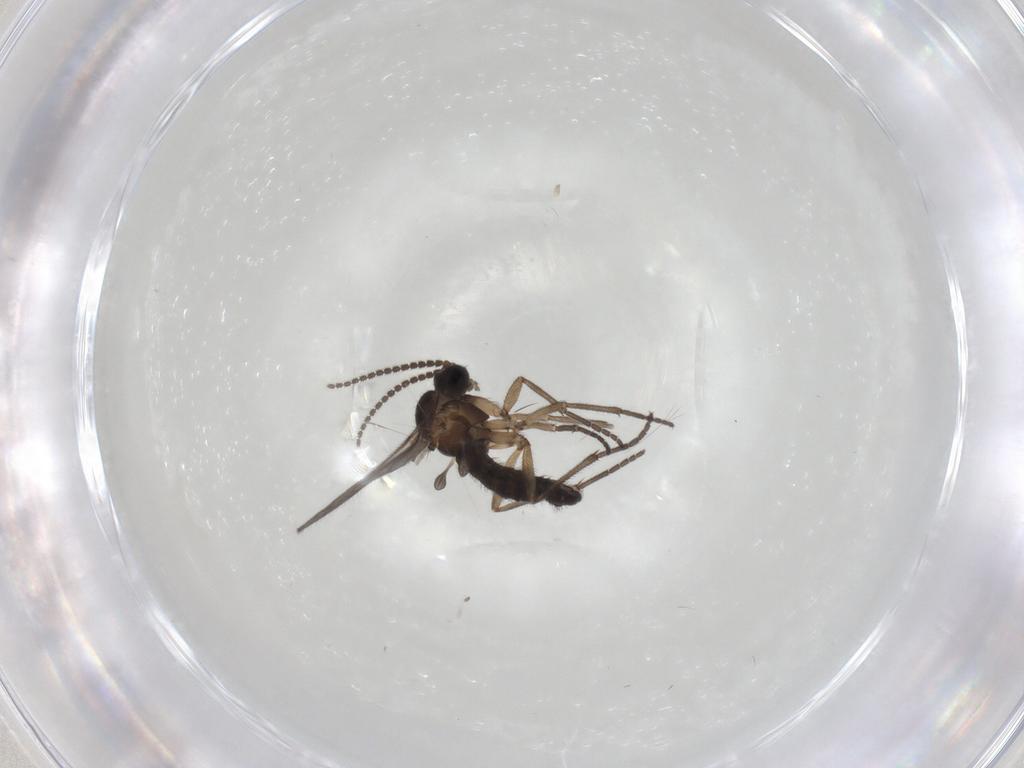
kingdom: Animalia
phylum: Arthropoda
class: Insecta
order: Diptera
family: Sciaridae
